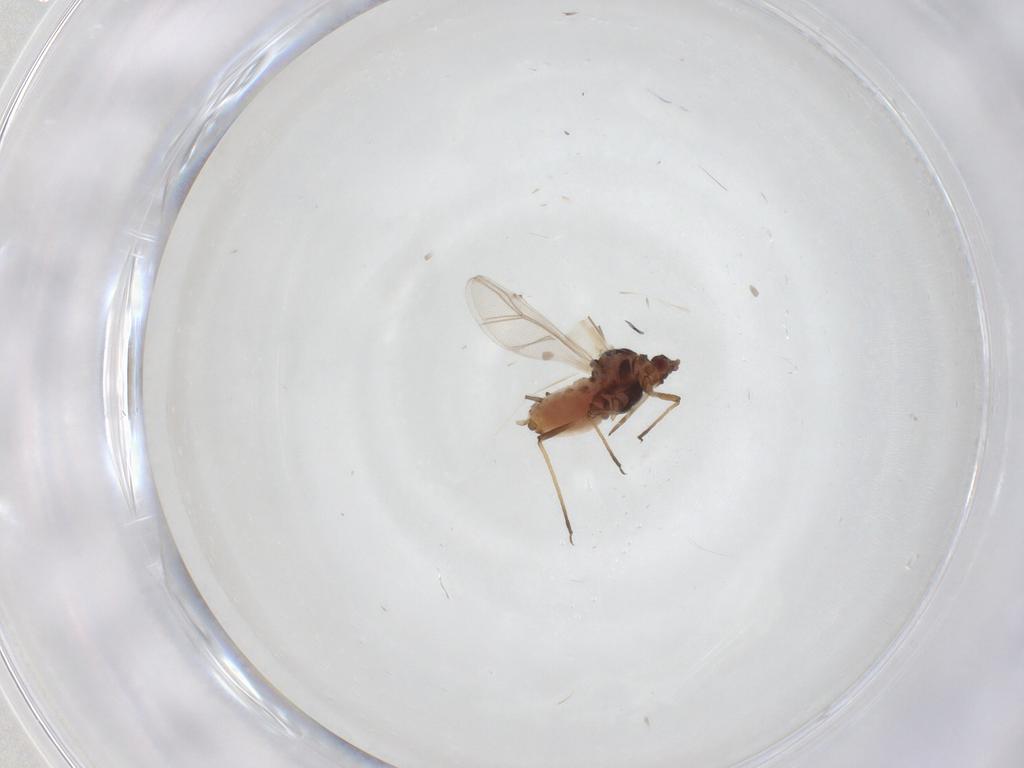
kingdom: Animalia
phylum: Arthropoda
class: Insecta
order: Hemiptera
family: Aphididae
